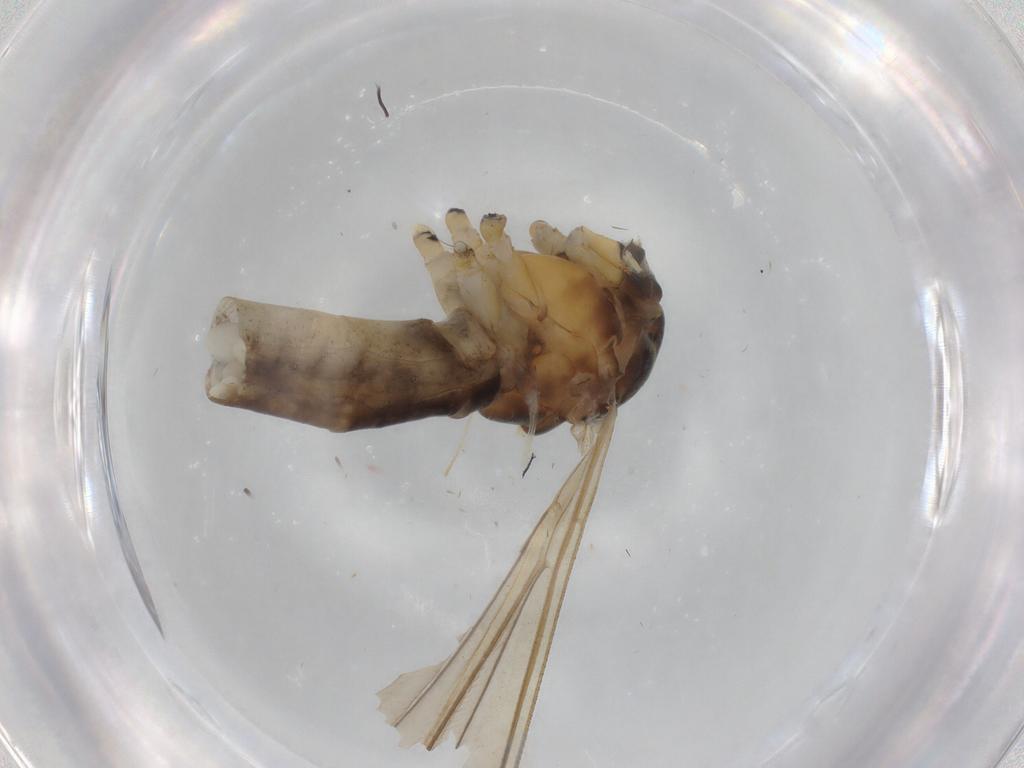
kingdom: Animalia
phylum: Arthropoda
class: Insecta
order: Diptera
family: Limoniidae
